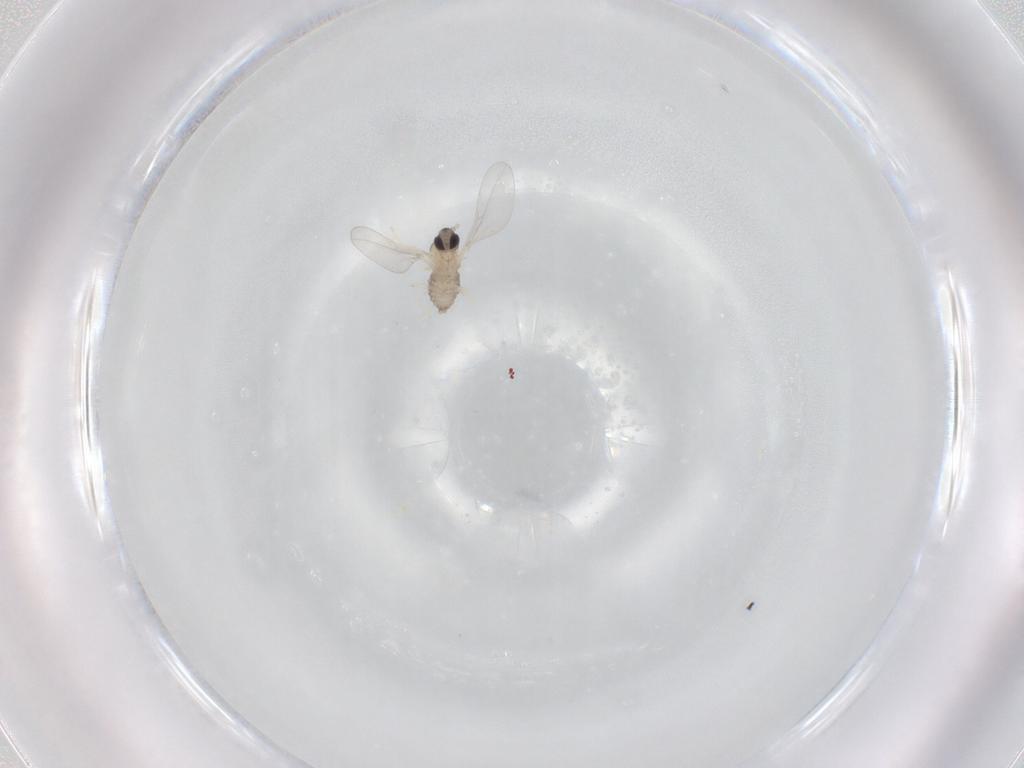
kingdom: Animalia
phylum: Arthropoda
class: Insecta
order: Diptera
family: Cecidomyiidae
